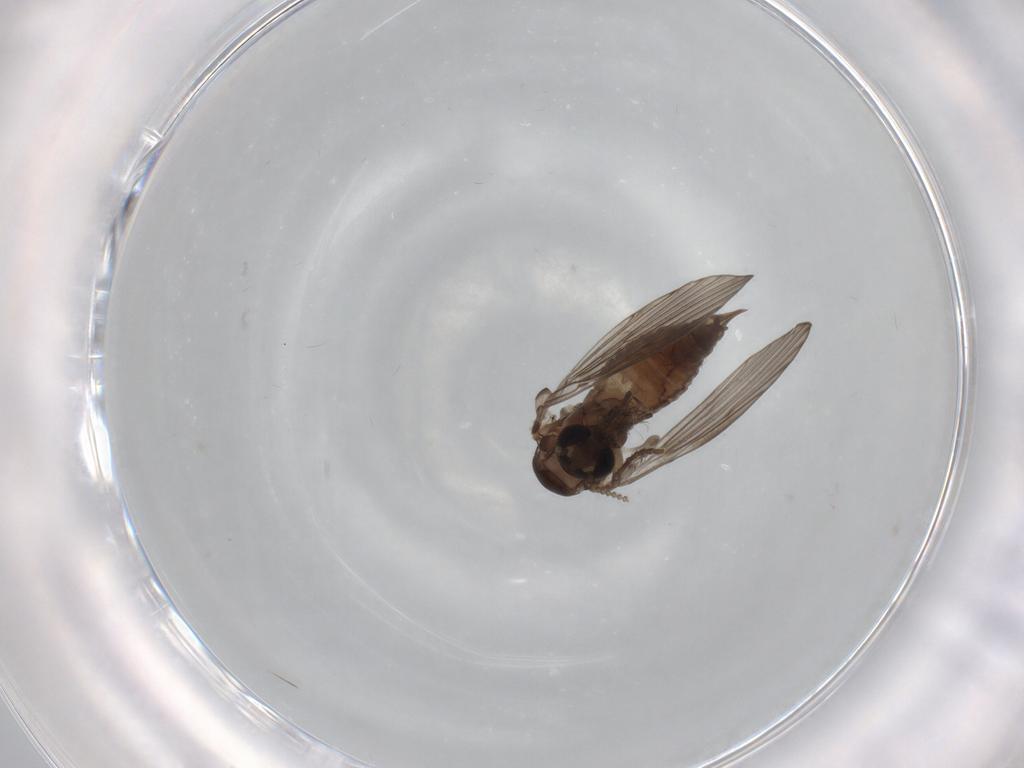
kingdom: Animalia
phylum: Arthropoda
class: Insecta
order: Diptera
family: Psychodidae
